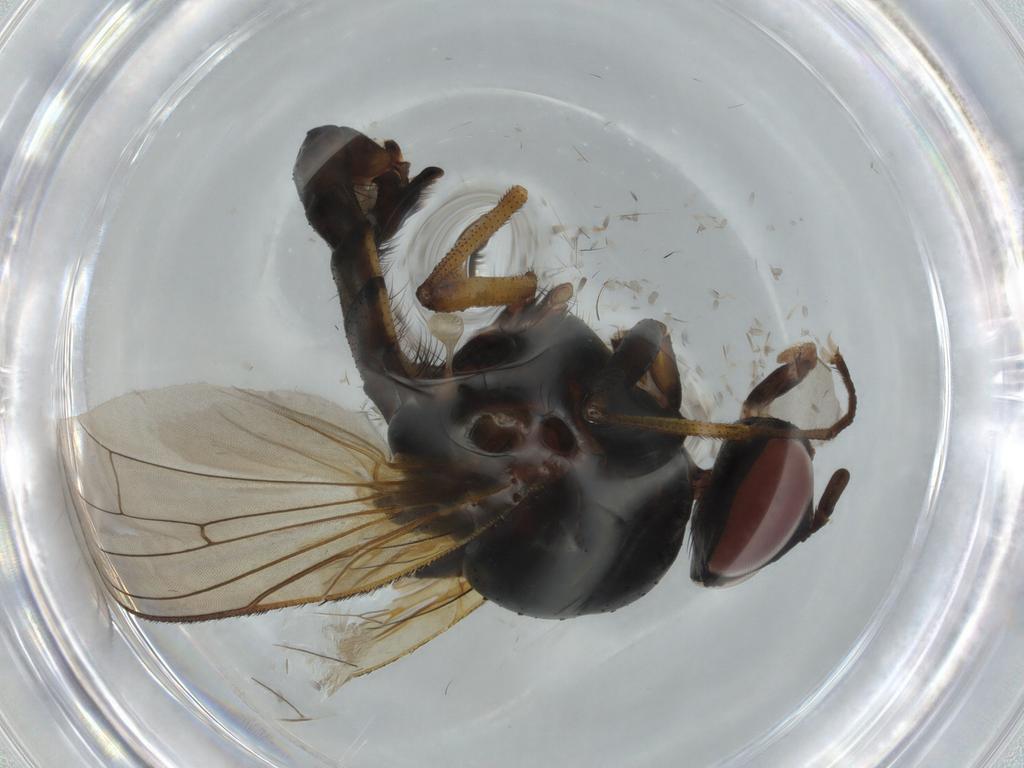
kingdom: Animalia
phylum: Arthropoda
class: Insecta
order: Diptera
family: Anthomyiidae
